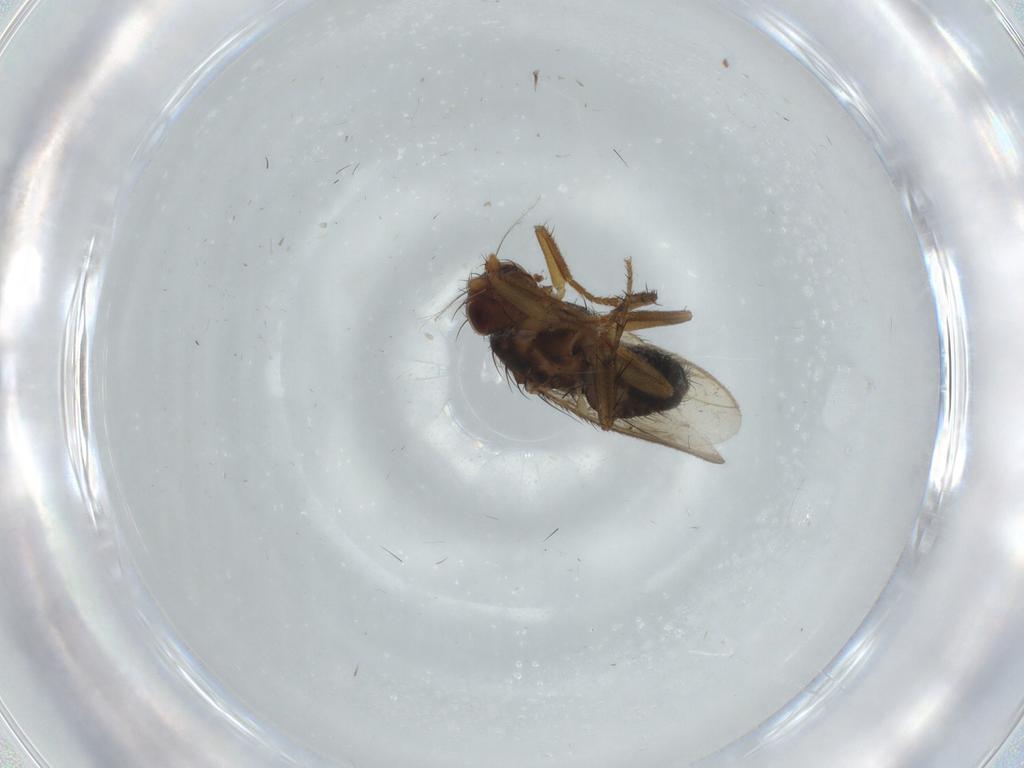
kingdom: Animalia
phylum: Arthropoda
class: Insecta
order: Diptera
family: Sphaeroceridae
